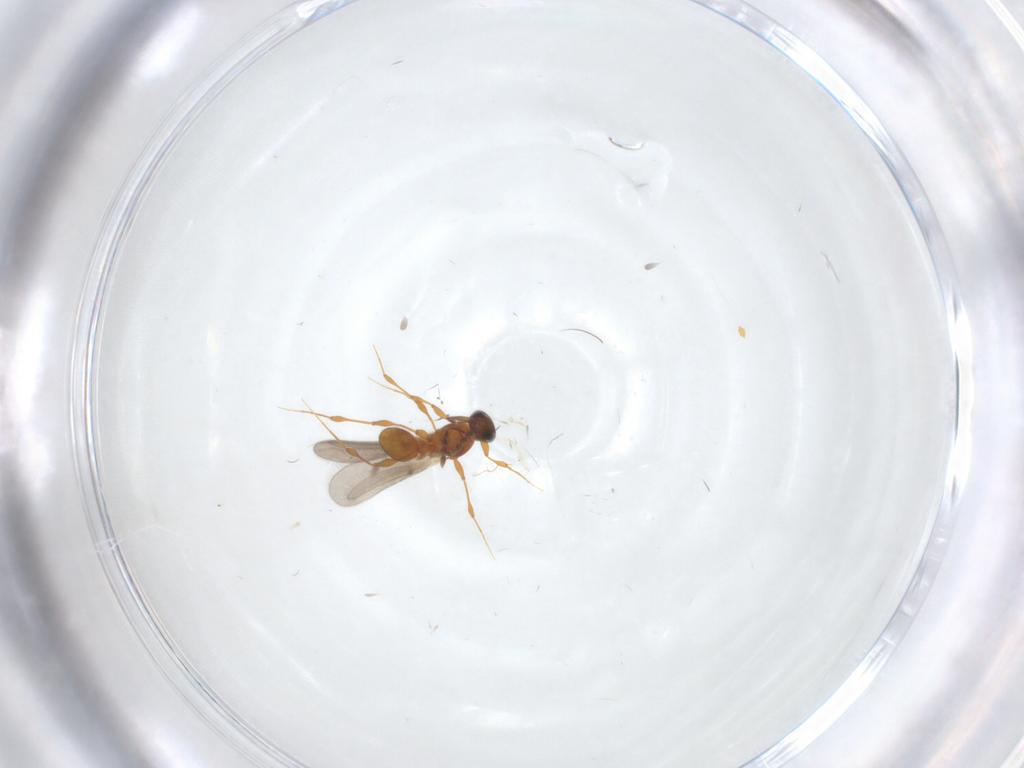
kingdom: Animalia
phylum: Arthropoda
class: Insecta
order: Hymenoptera
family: Platygastridae
